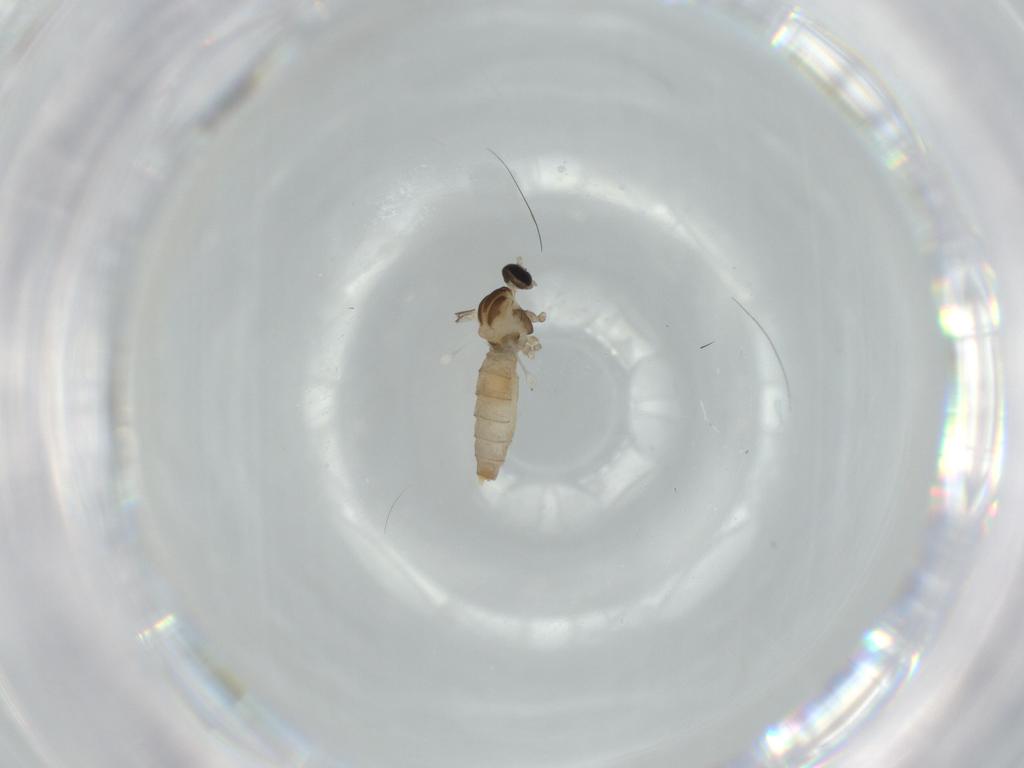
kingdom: Animalia
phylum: Arthropoda
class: Insecta
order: Diptera
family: Cecidomyiidae
